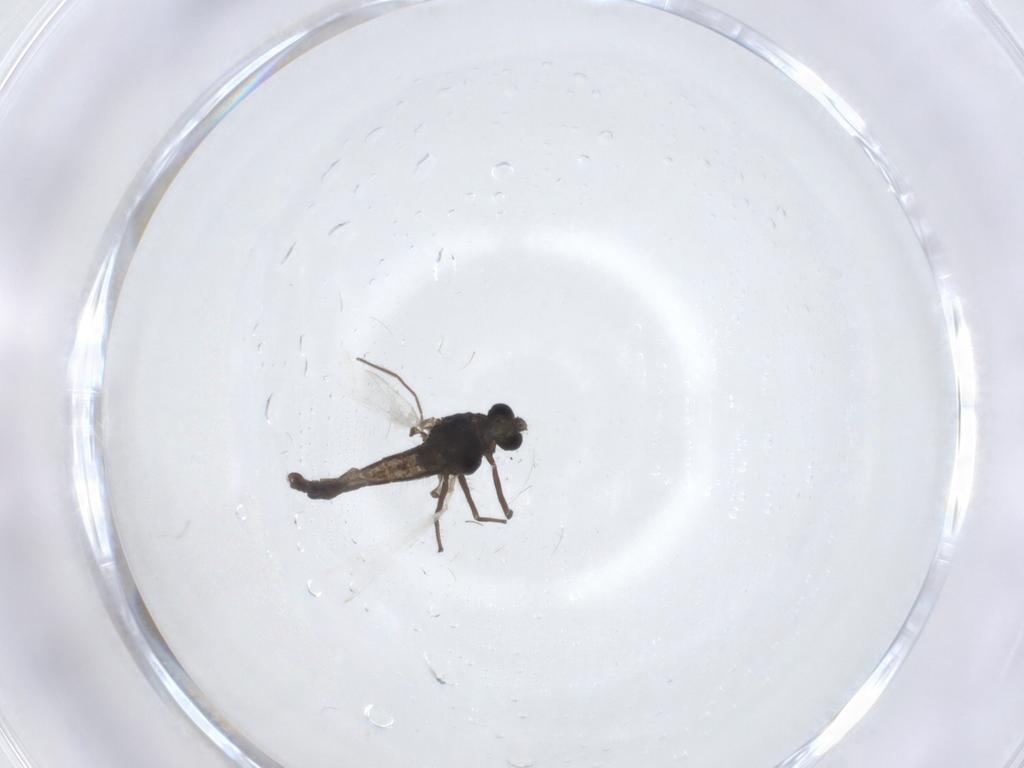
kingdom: Animalia
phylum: Arthropoda
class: Insecta
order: Diptera
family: Chironomidae
